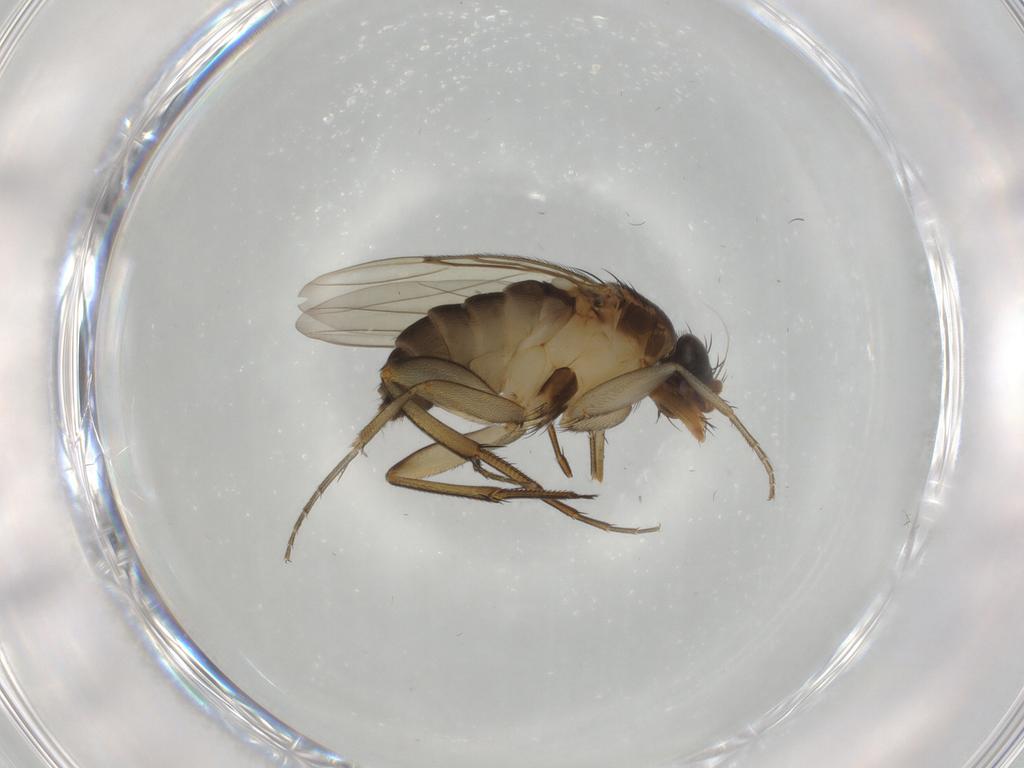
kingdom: Animalia
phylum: Arthropoda
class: Insecta
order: Diptera
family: Phoridae
